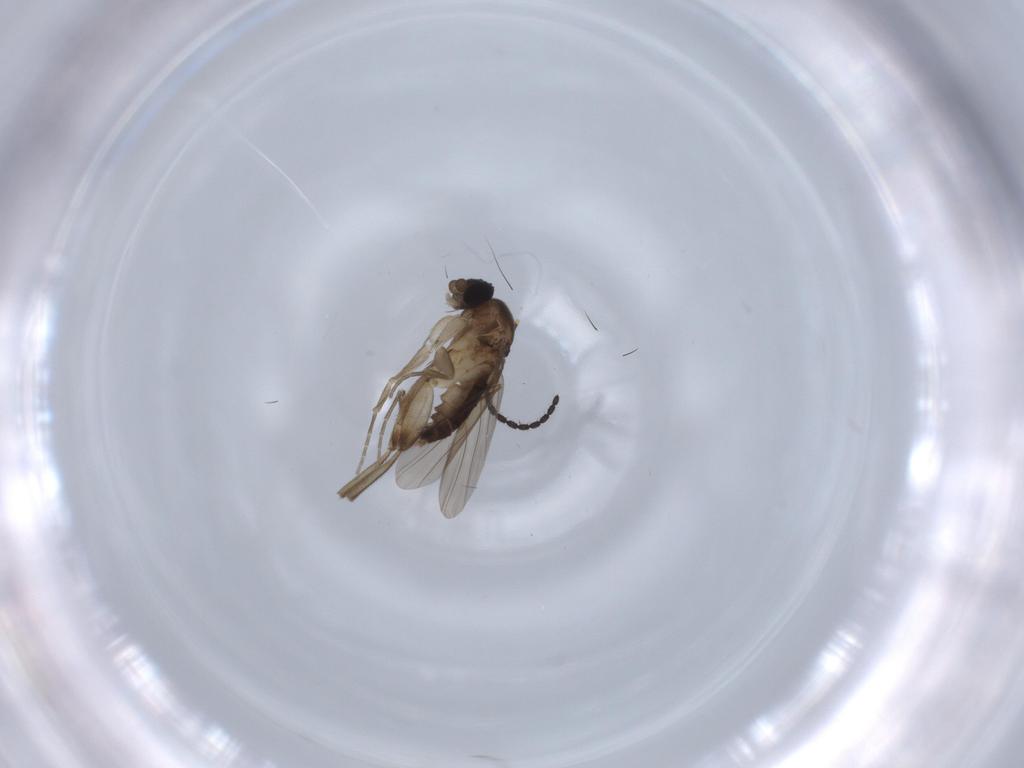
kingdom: Animalia
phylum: Arthropoda
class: Insecta
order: Diptera
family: Phoridae
